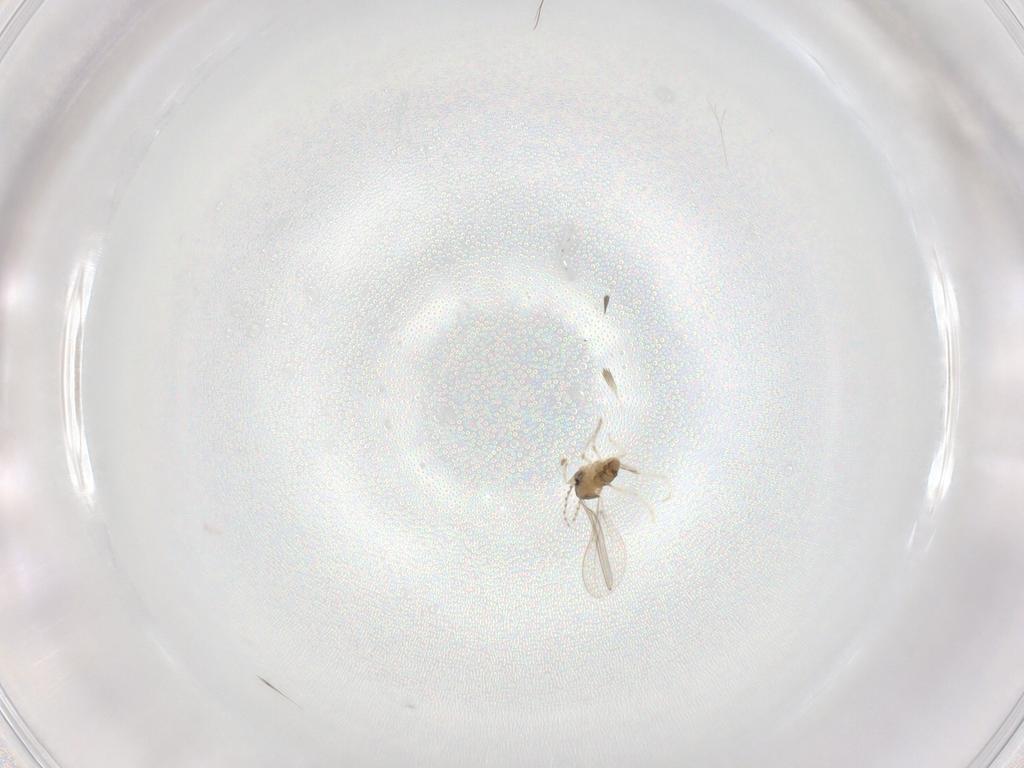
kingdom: Animalia
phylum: Arthropoda
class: Insecta
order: Diptera
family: Cecidomyiidae
